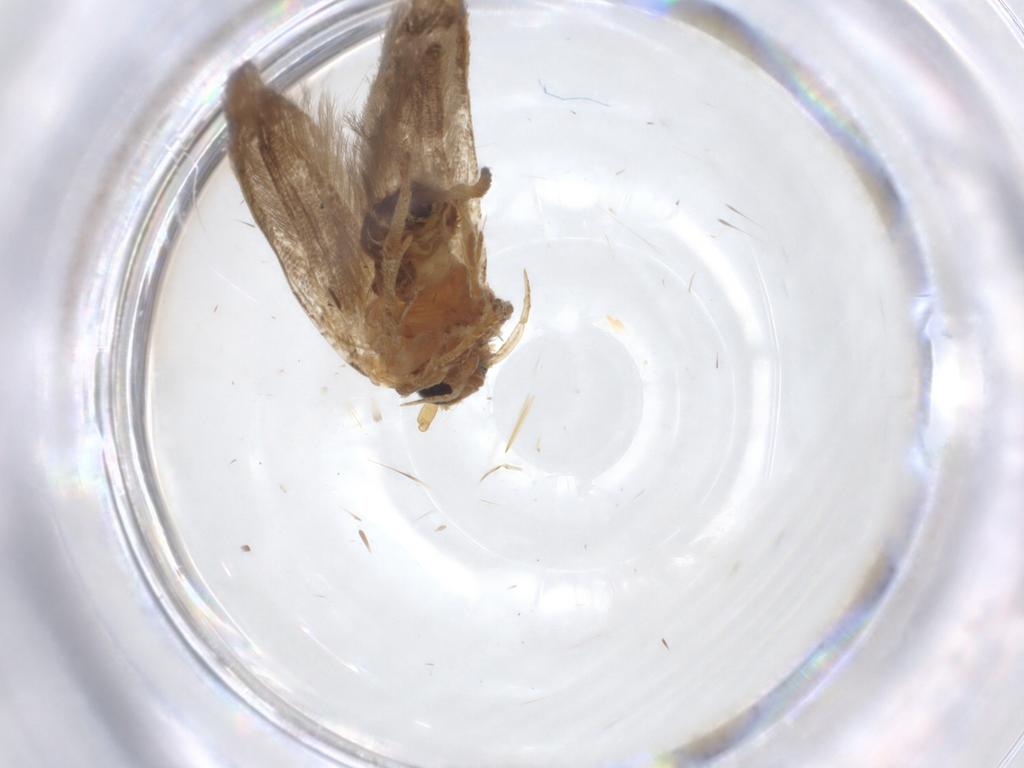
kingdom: Animalia
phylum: Arthropoda
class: Insecta
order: Lepidoptera
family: Blastobasidae
